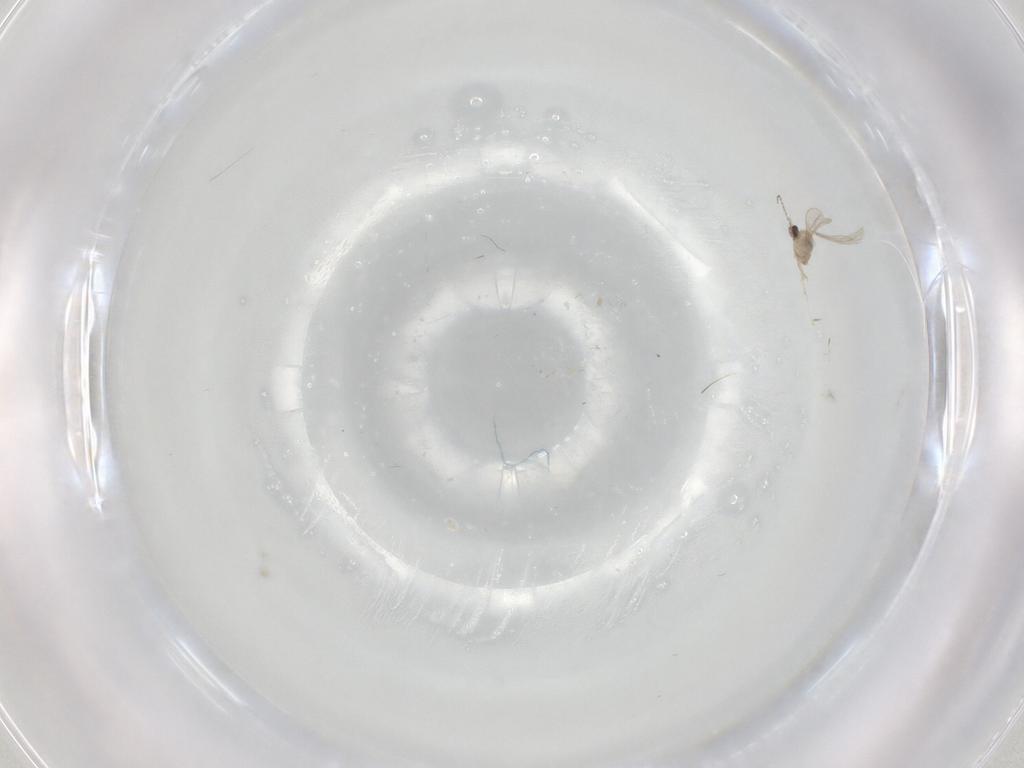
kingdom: Animalia
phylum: Arthropoda
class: Insecta
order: Diptera
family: Cecidomyiidae
